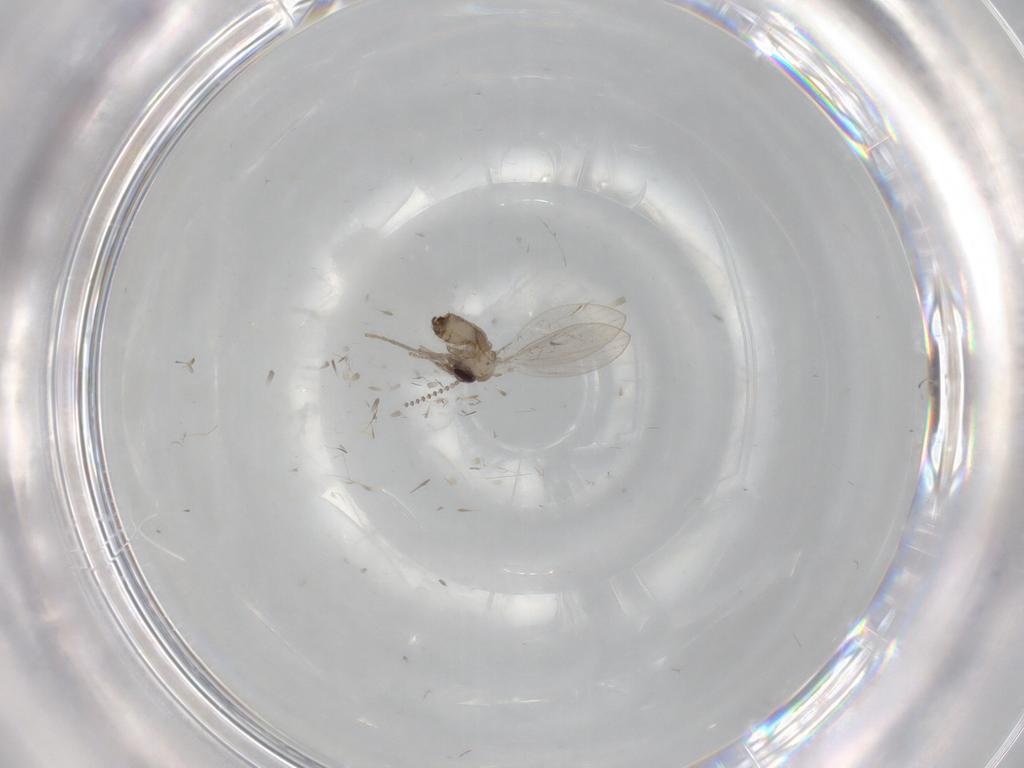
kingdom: Animalia
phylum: Arthropoda
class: Insecta
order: Diptera
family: Psychodidae
